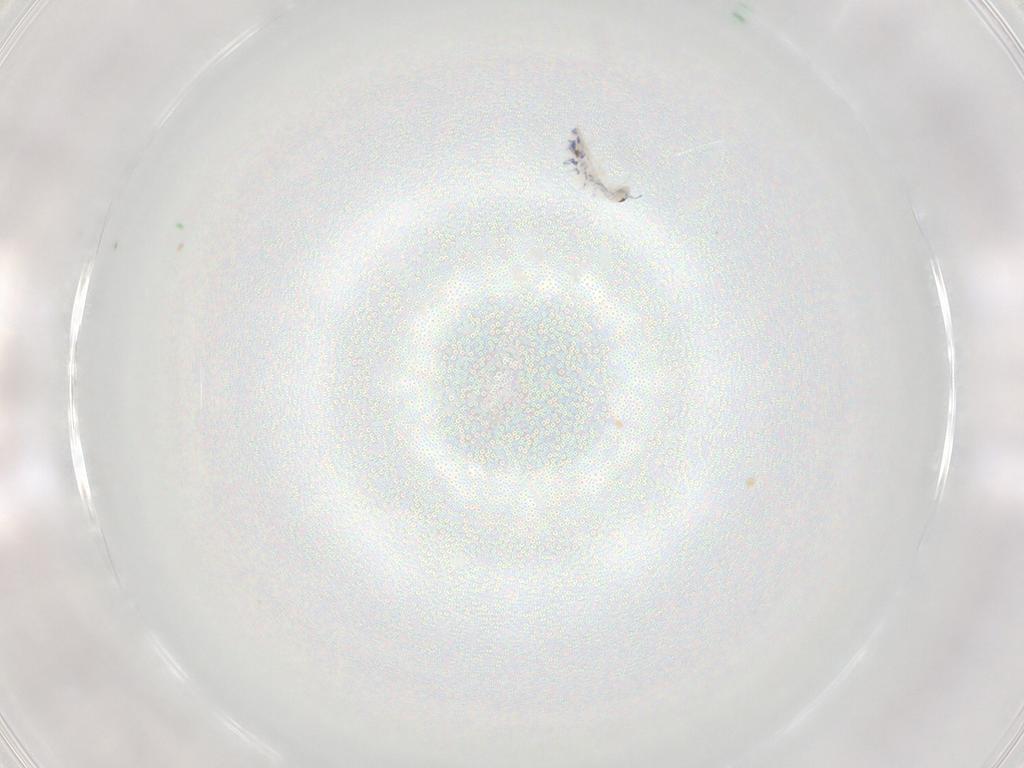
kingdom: Animalia
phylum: Arthropoda
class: Collembola
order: Entomobryomorpha
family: Entomobryidae
